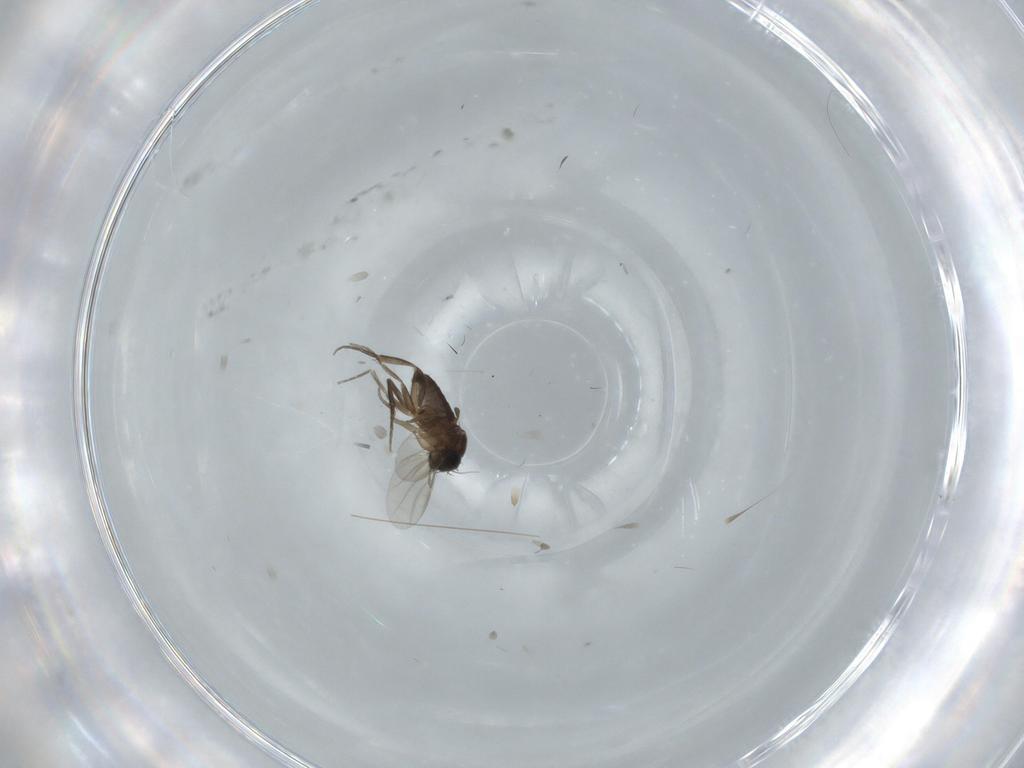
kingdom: Animalia
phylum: Arthropoda
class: Insecta
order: Diptera
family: Phoridae
